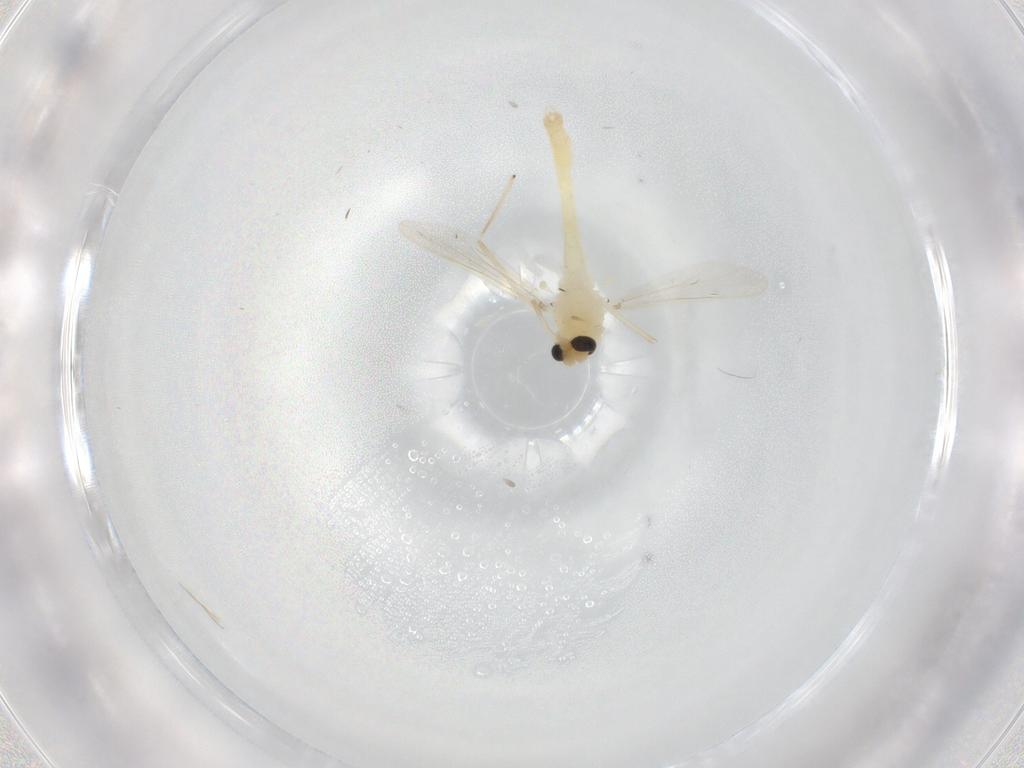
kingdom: Animalia
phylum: Arthropoda
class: Insecta
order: Diptera
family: Chironomidae
